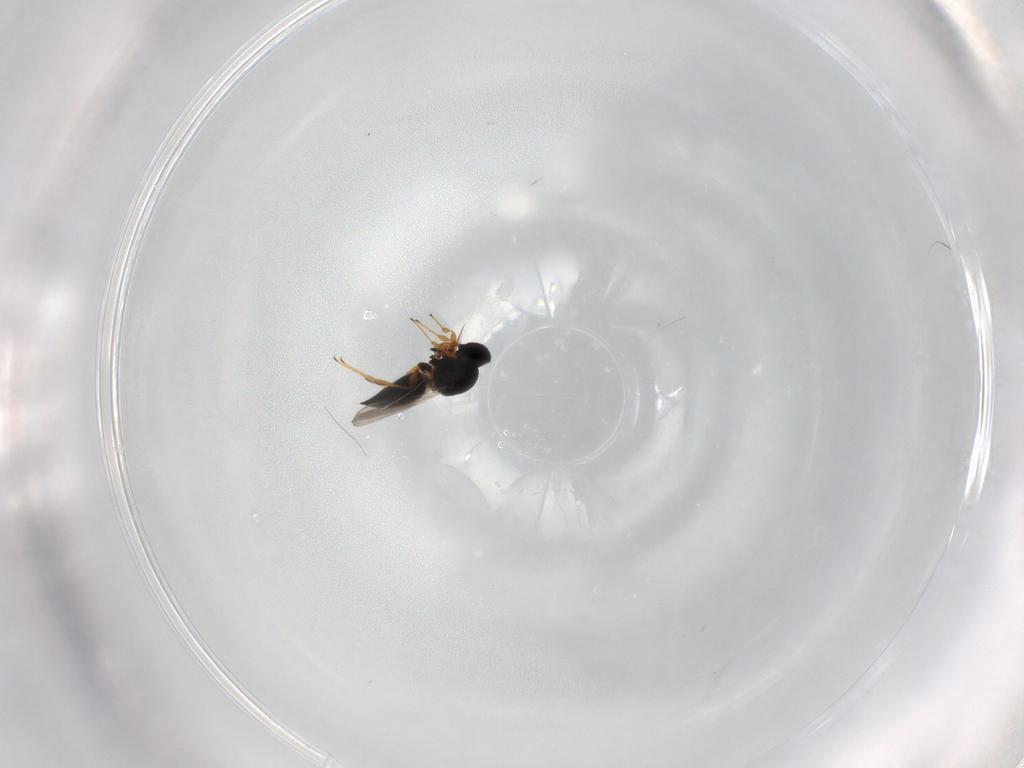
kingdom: Animalia
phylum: Arthropoda
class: Insecta
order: Hymenoptera
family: Platygastridae
